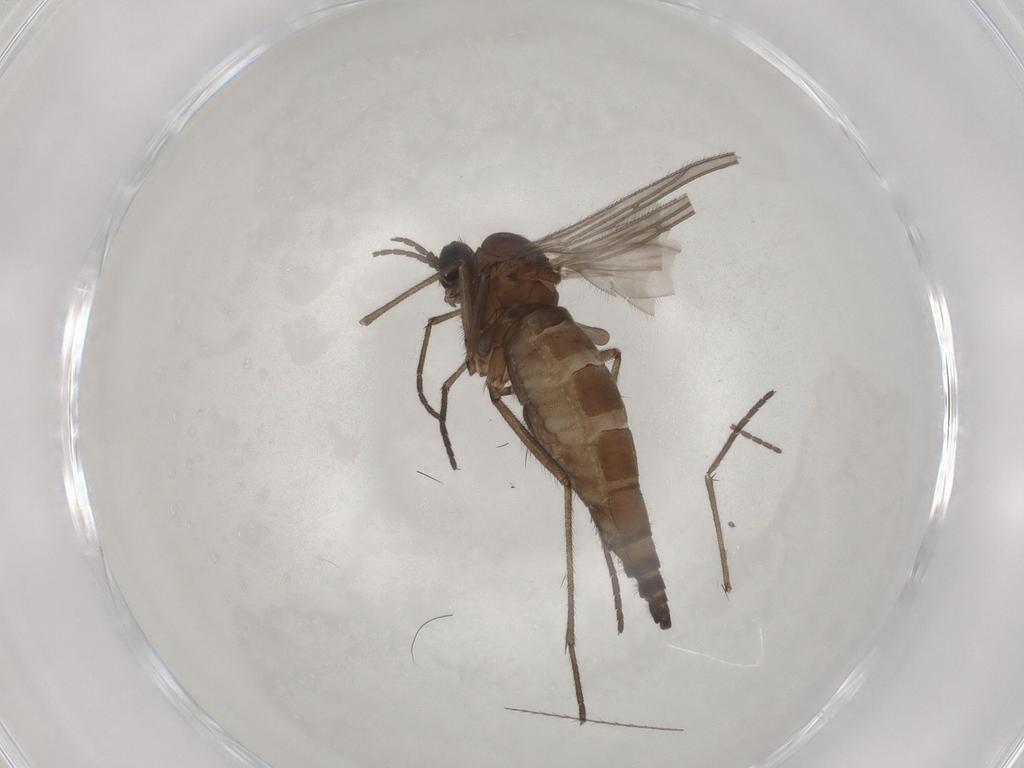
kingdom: Animalia
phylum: Arthropoda
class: Insecta
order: Diptera
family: Sciaridae
